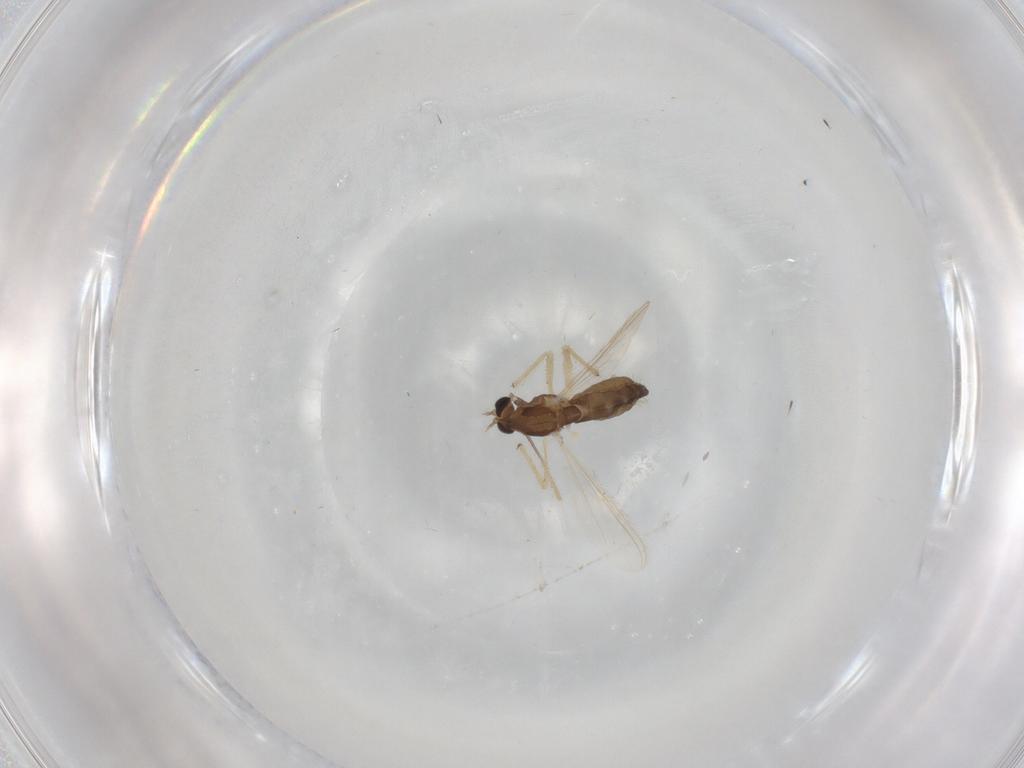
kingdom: Animalia
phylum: Arthropoda
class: Insecta
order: Diptera
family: Chironomidae
